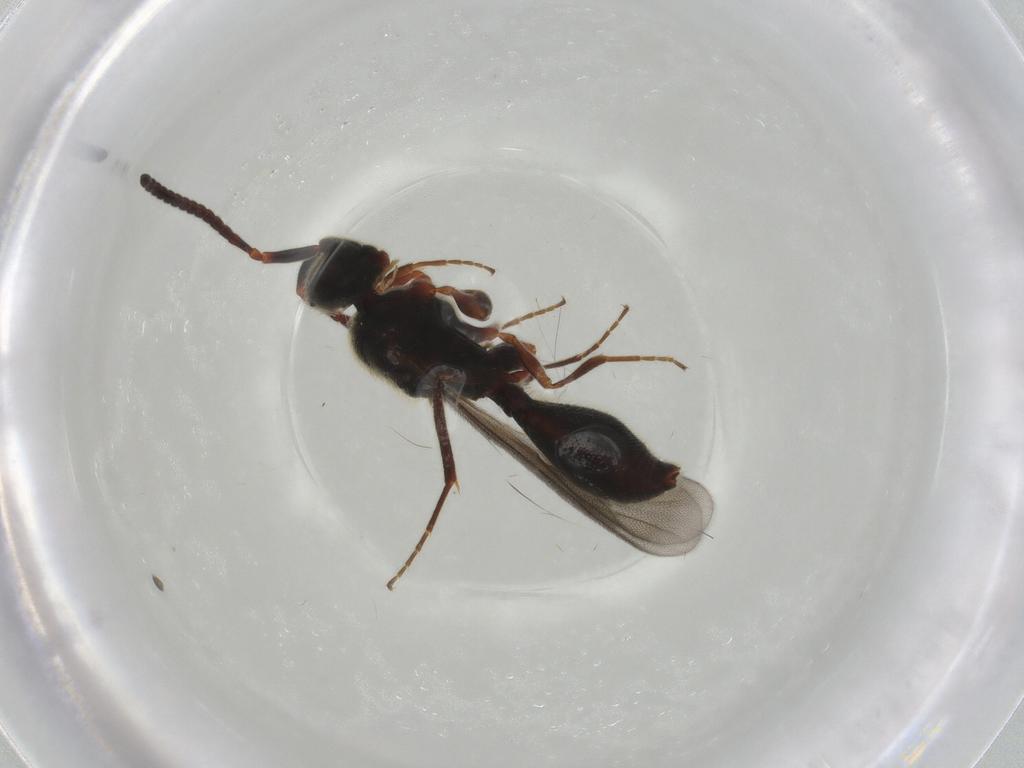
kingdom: Animalia
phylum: Arthropoda
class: Insecta
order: Hymenoptera
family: Diapriidae
